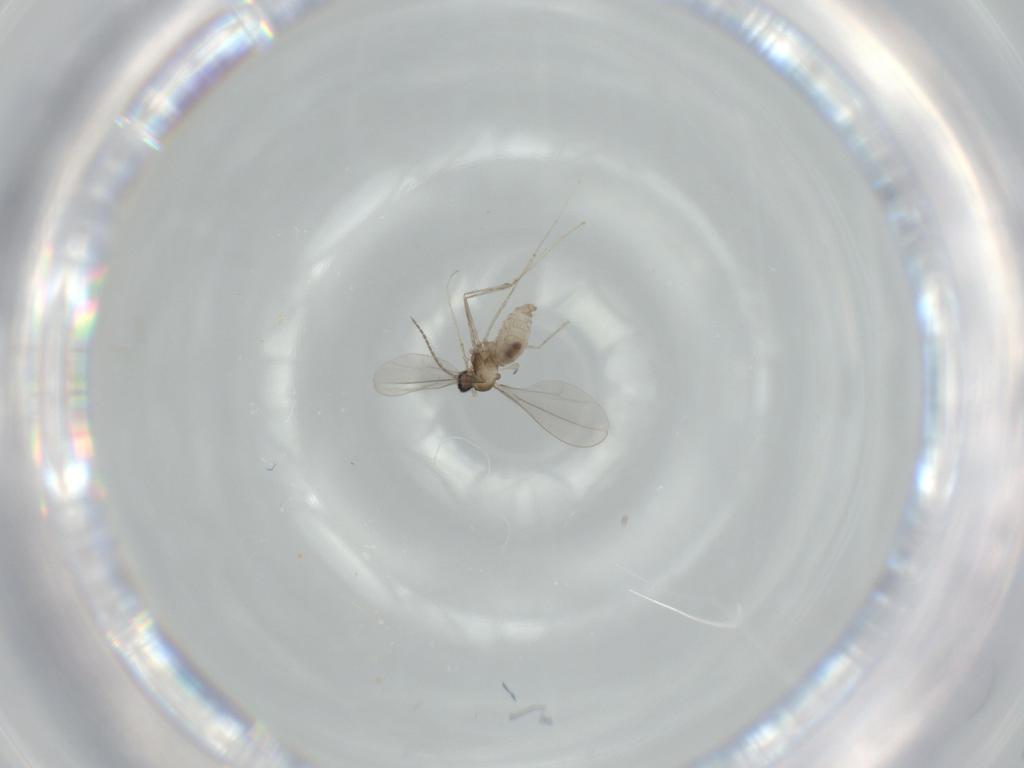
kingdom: Animalia
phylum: Arthropoda
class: Insecta
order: Diptera
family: Cecidomyiidae
